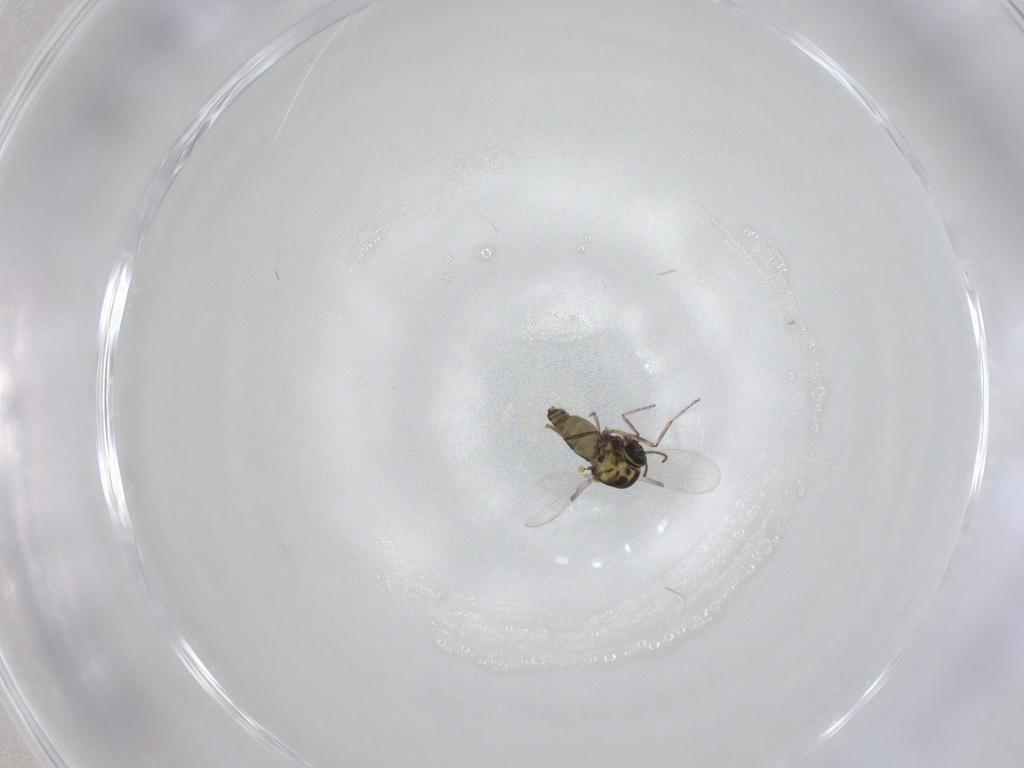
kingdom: Animalia
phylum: Arthropoda
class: Insecta
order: Diptera
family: Ceratopogonidae
